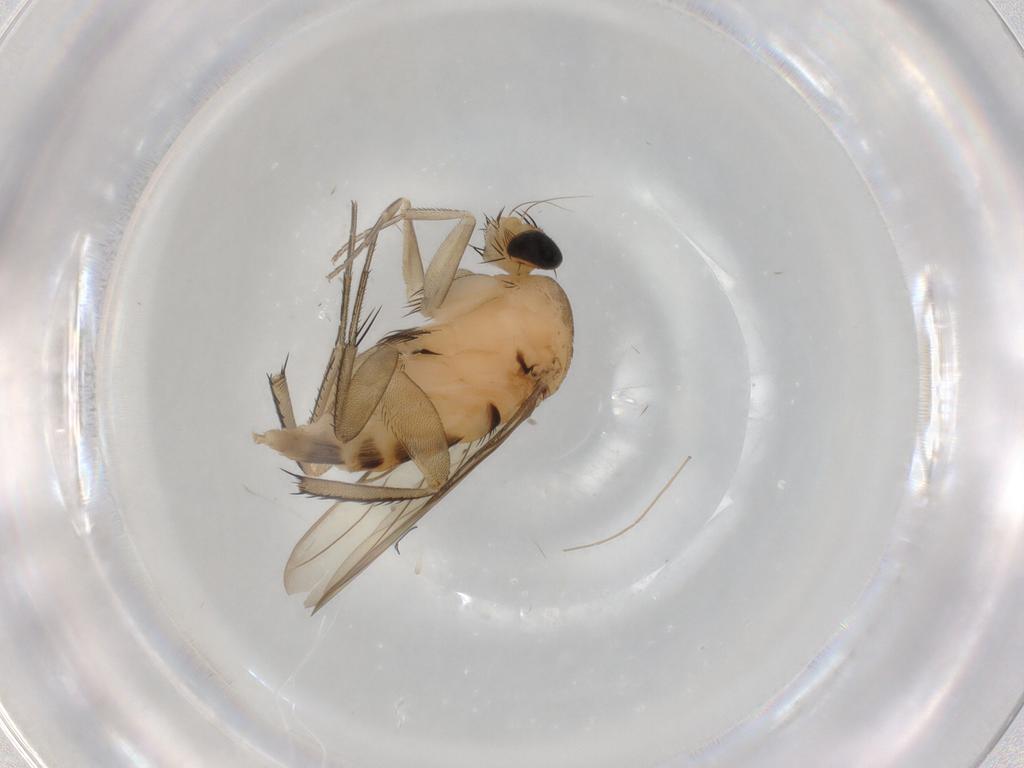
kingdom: Animalia
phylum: Arthropoda
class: Insecta
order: Diptera
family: Phoridae
